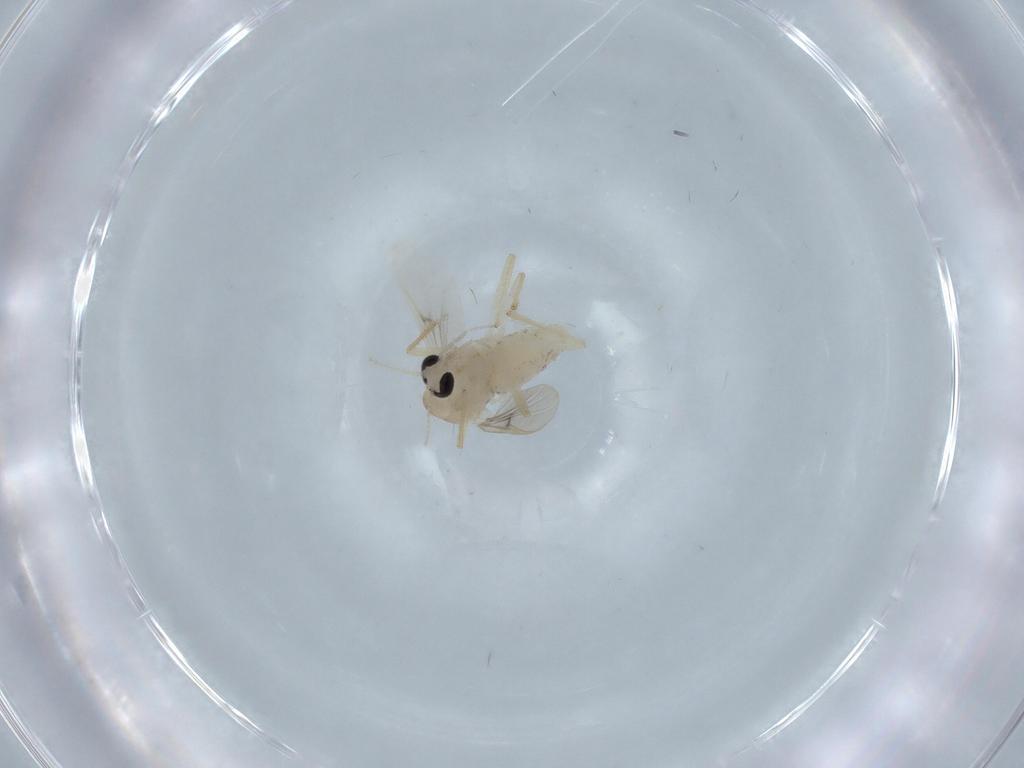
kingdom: Animalia
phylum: Arthropoda
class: Insecta
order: Diptera
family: Chironomidae
